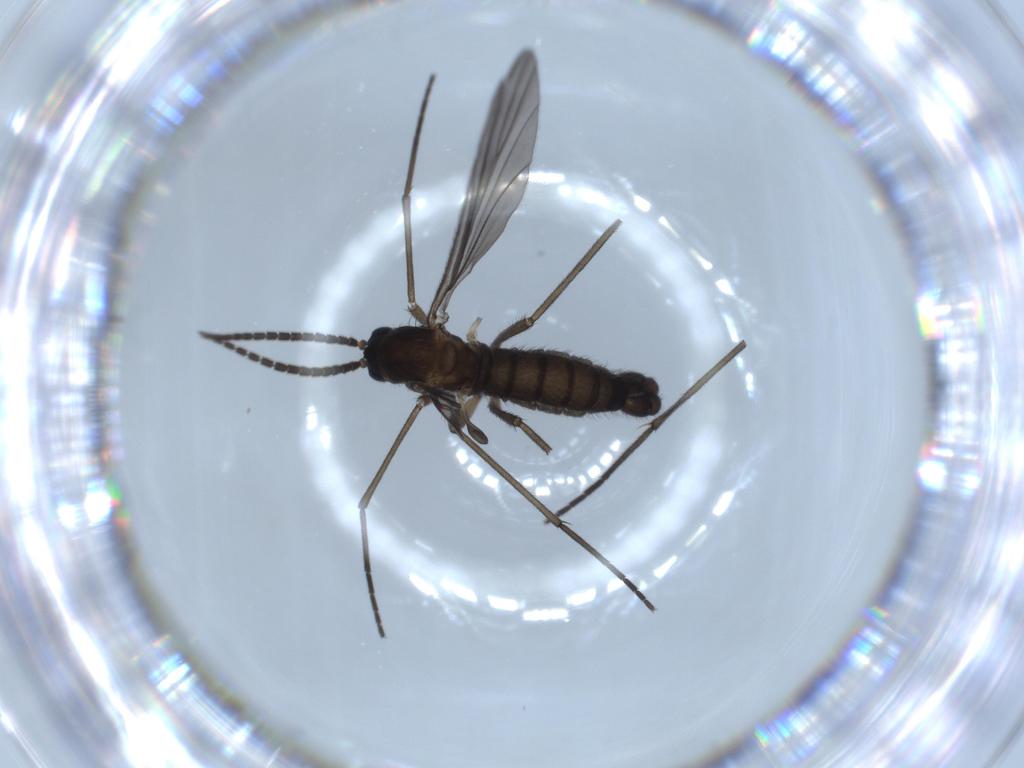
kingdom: Animalia
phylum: Arthropoda
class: Insecta
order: Diptera
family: Sciaridae
